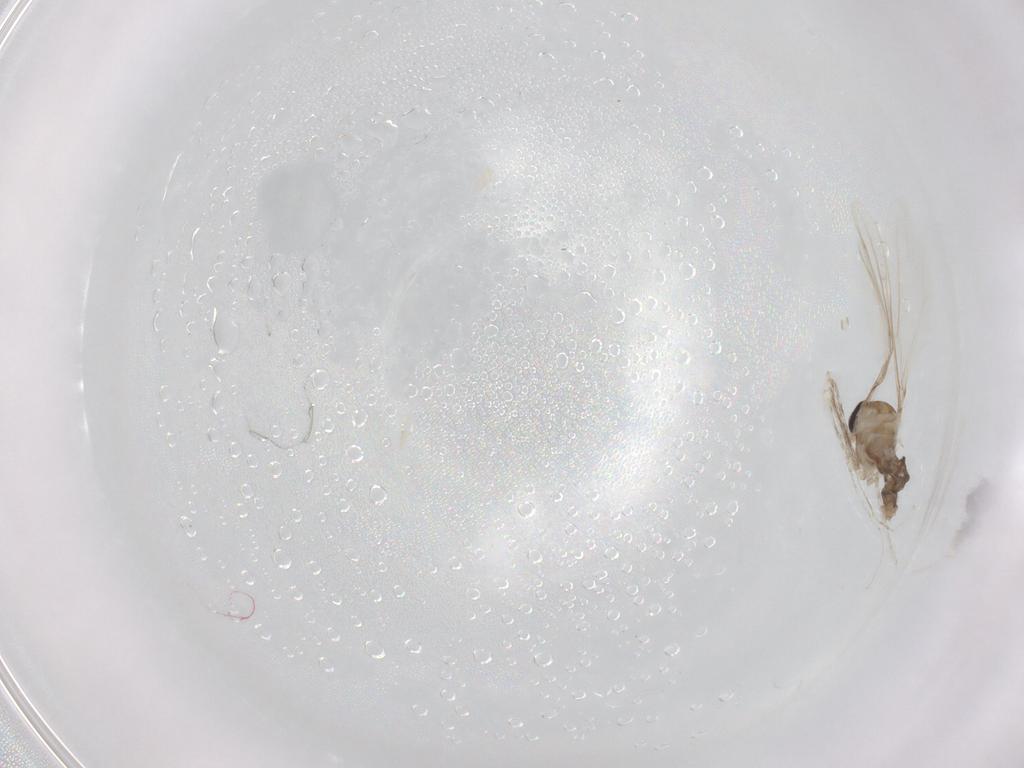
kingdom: Animalia
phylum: Arthropoda
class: Insecta
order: Diptera
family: Cecidomyiidae
